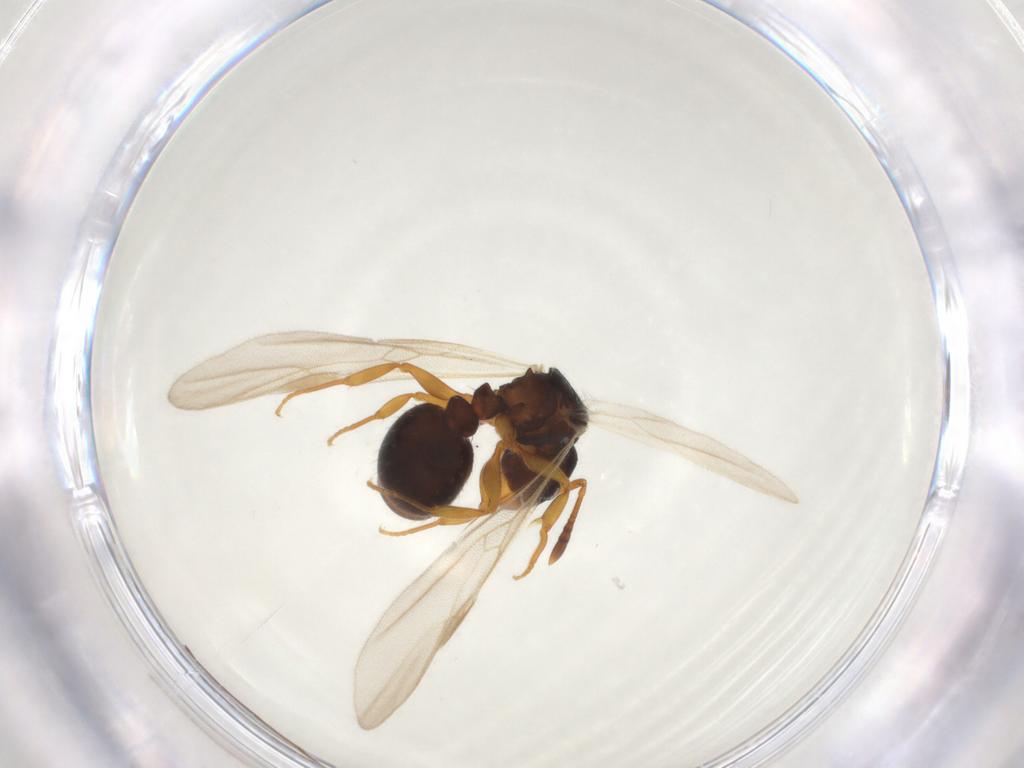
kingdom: Animalia
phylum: Arthropoda
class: Insecta
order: Hymenoptera
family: Formicidae
